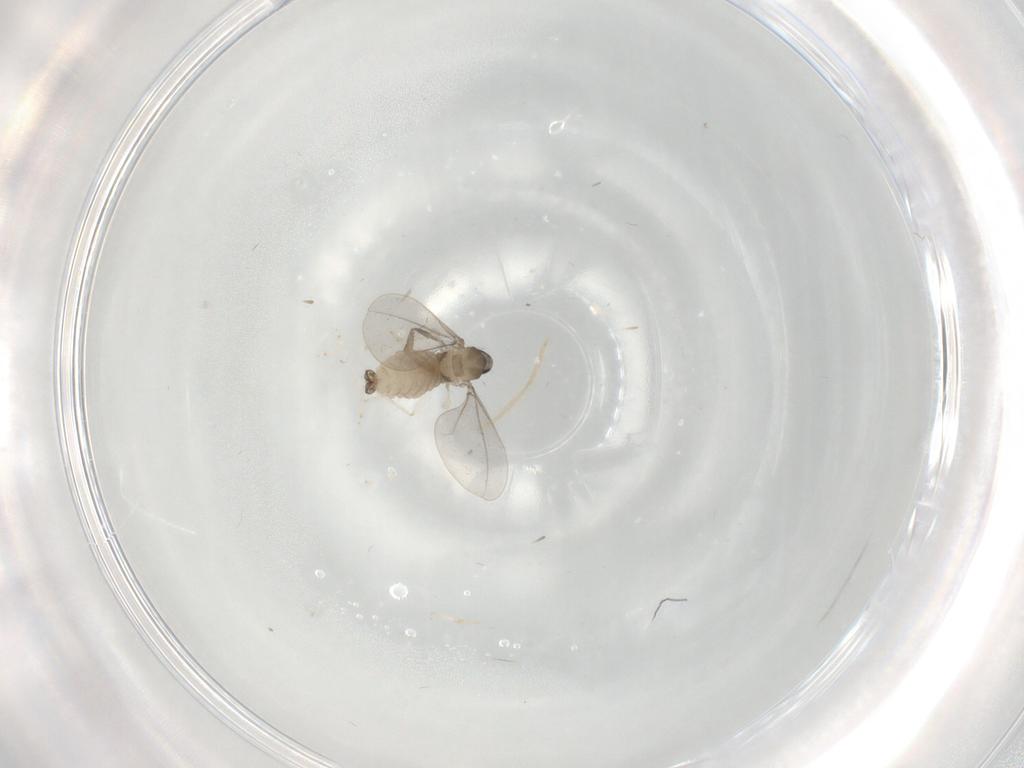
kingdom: Animalia
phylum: Arthropoda
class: Insecta
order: Diptera
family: Cecidomyiidae
